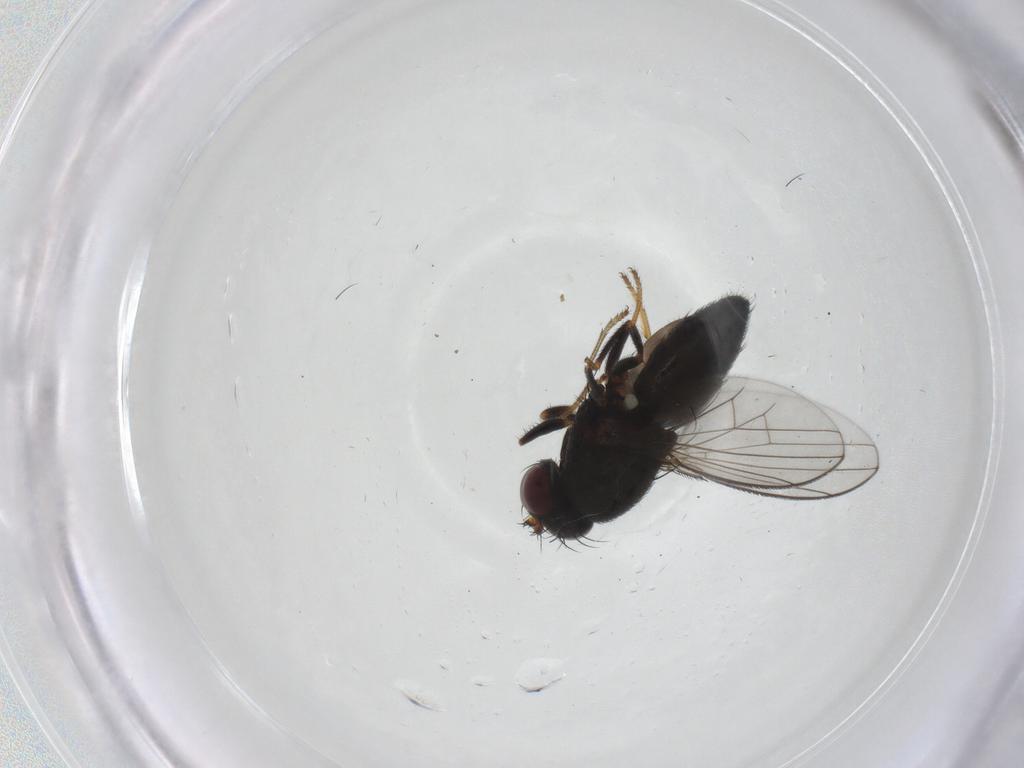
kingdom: Animalia
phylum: Arthropoda
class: Insecta
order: Diptera
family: Ephydridae
